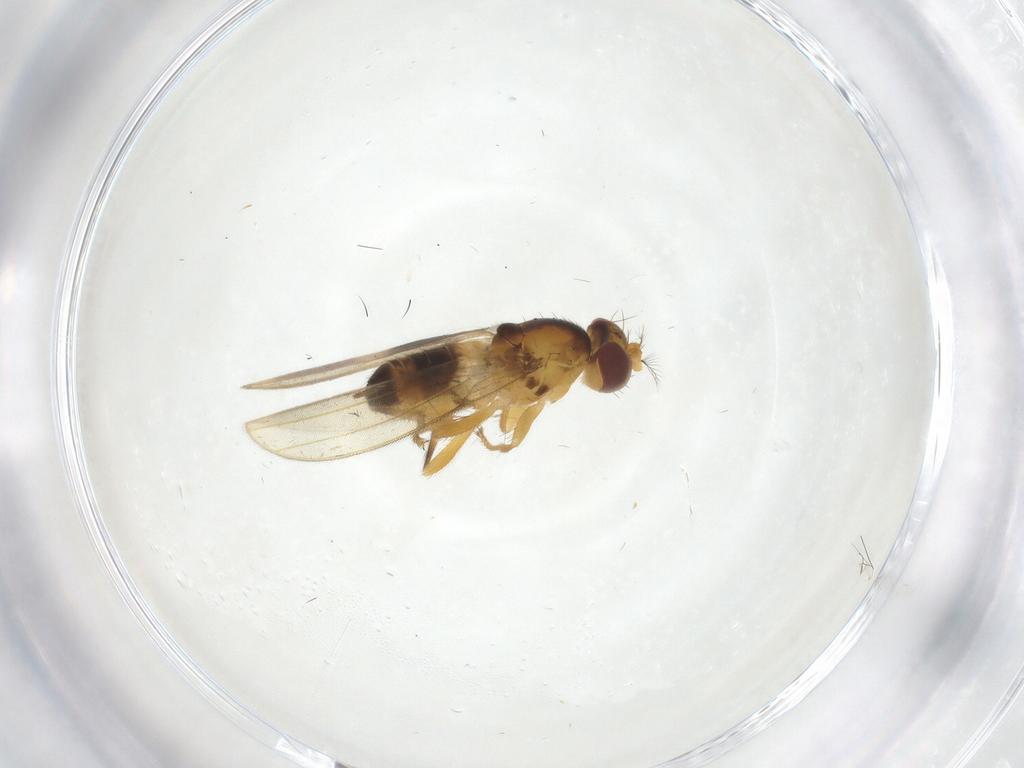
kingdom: Animalia
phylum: Arthropoda
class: Insecta
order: Diptera
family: Periscelididae
